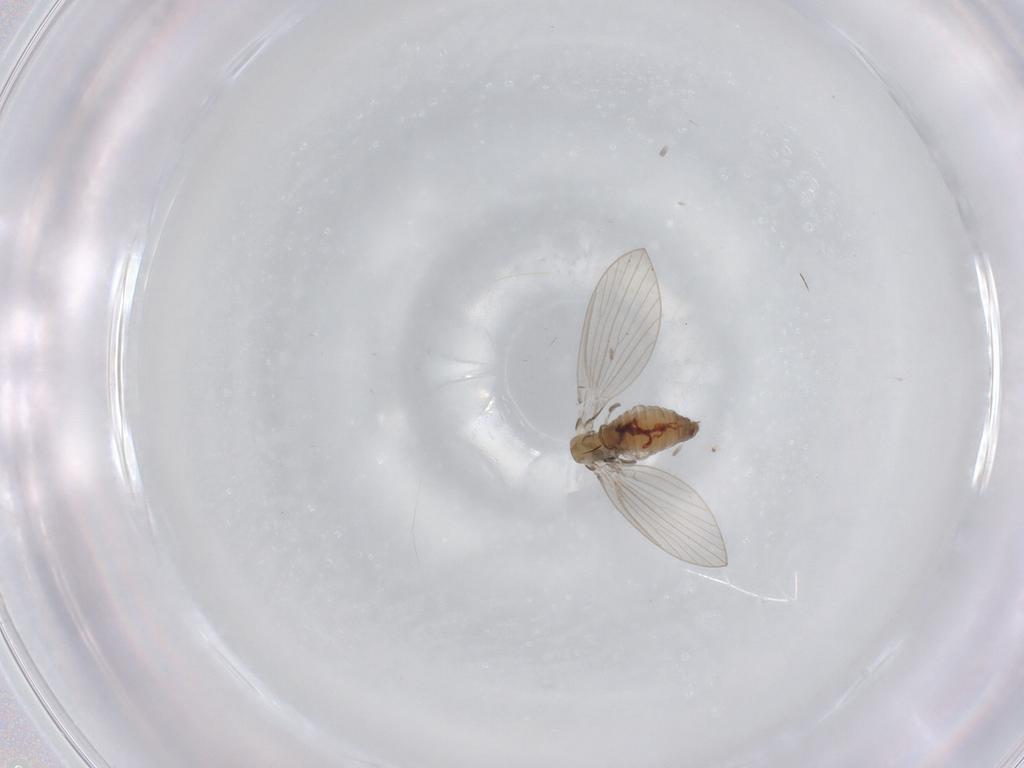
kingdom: Animalia
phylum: Arthropoda
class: Insecta
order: Diptera
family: Psychodidae
